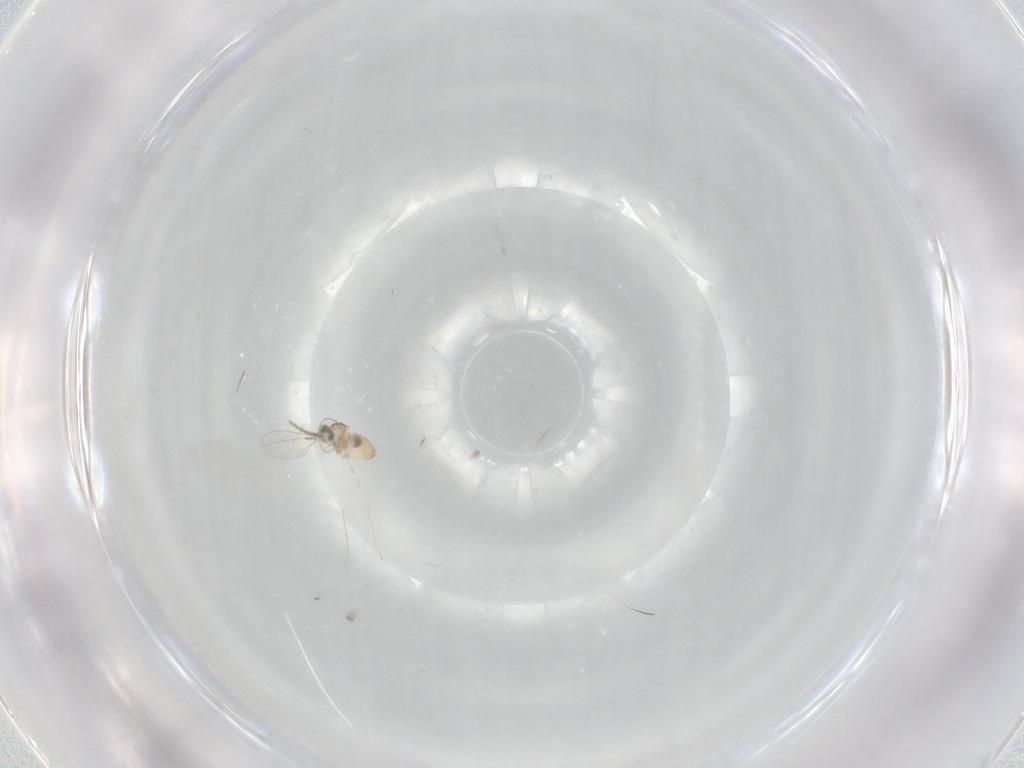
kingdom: Animalia
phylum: Arthropoda
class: Insecta
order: Diptera
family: Cecidomyiidae
